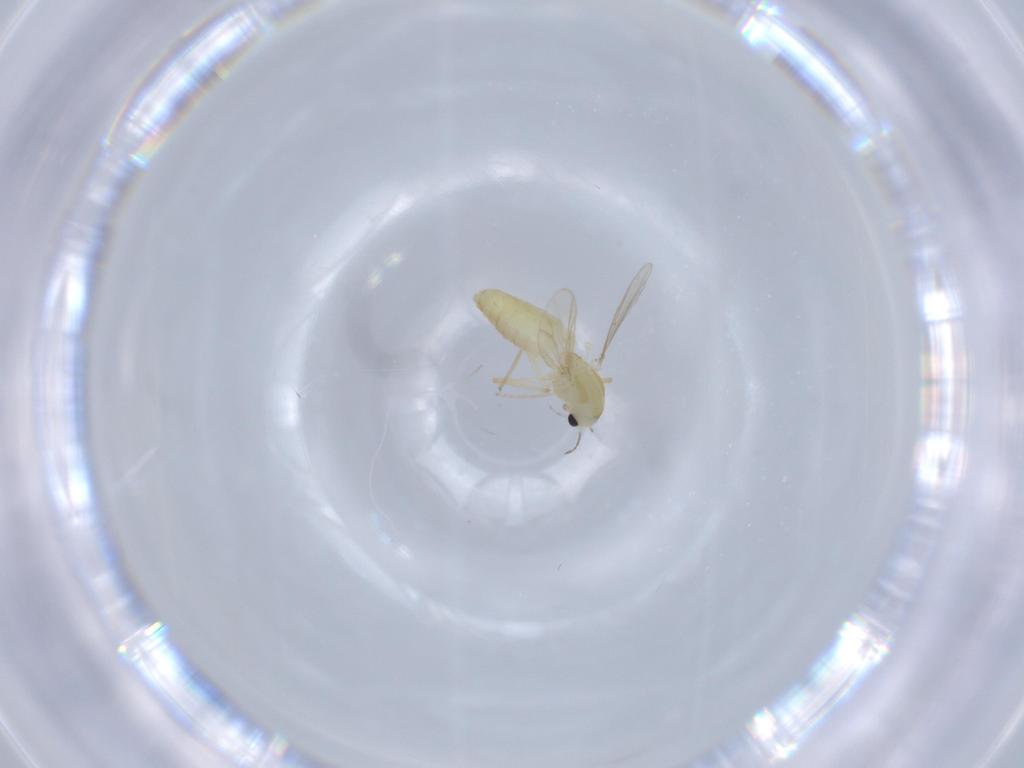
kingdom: Animalia
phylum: Arthropoda
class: Insecta
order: Diptera
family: Chironomidae
